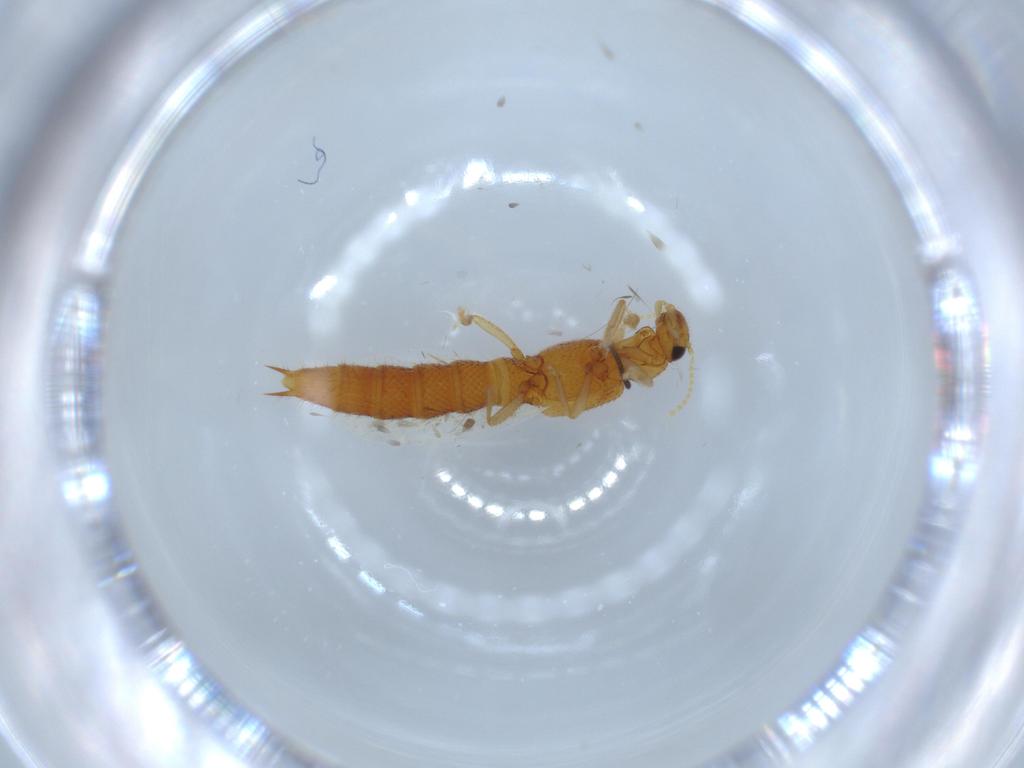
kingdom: Animalia
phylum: Arthropoda
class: Insecta
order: Coleoptera
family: Staphylinidae
